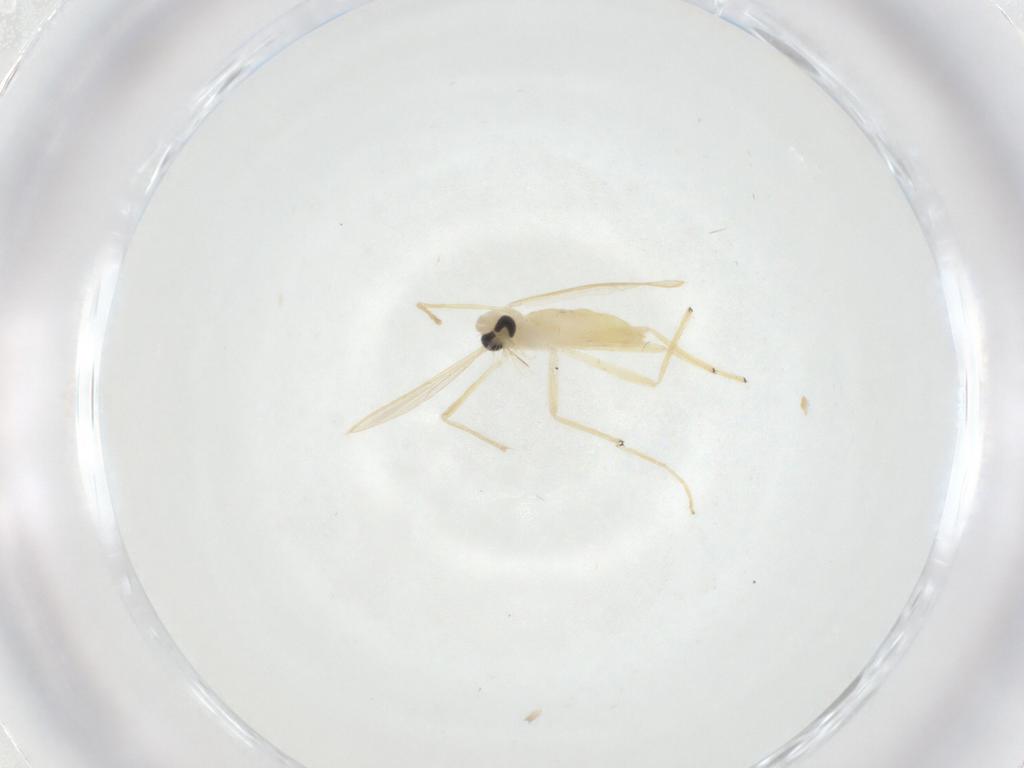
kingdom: Animalia
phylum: Arthropoda
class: Insecta
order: Diptera
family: Chironomidae
